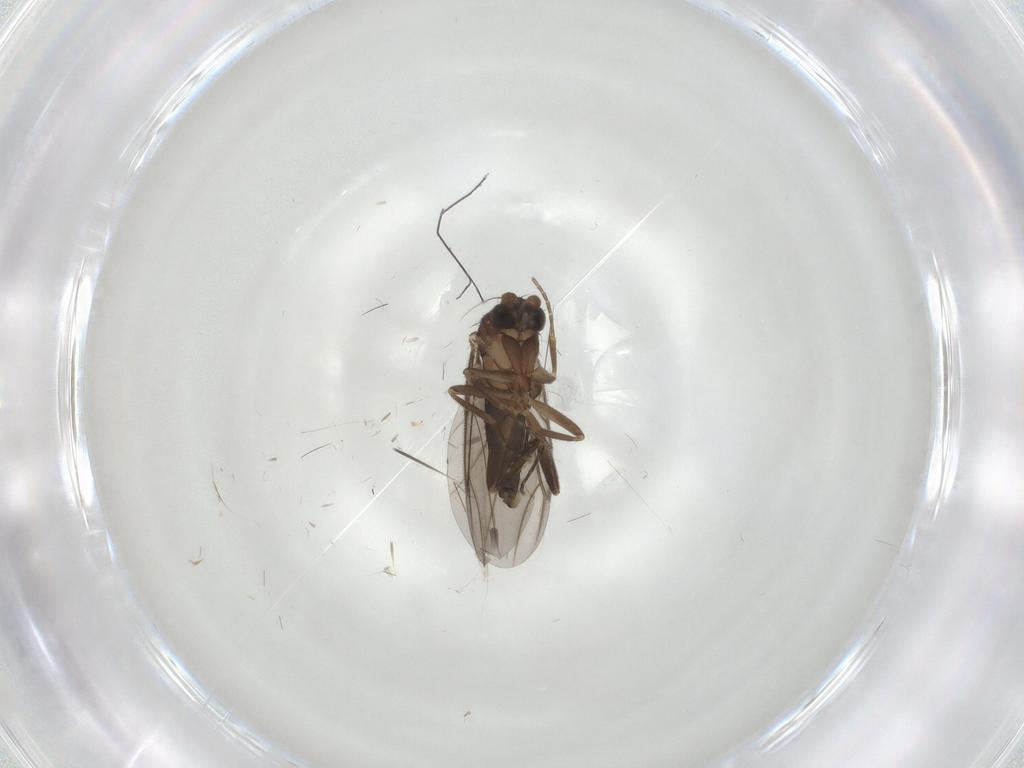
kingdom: Animalia
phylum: Arthropoda
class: Insecta
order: Diptera
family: Phoridae
